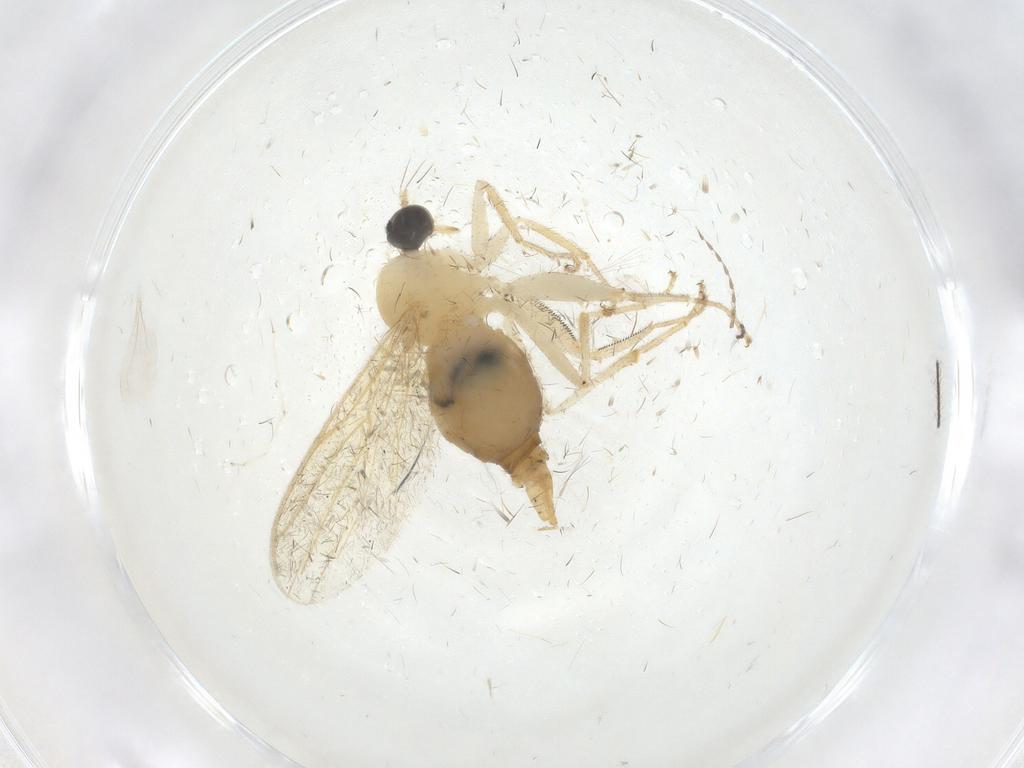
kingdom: Animalia
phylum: Arthropoda
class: Insecta
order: Diptera
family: Hybotidae
